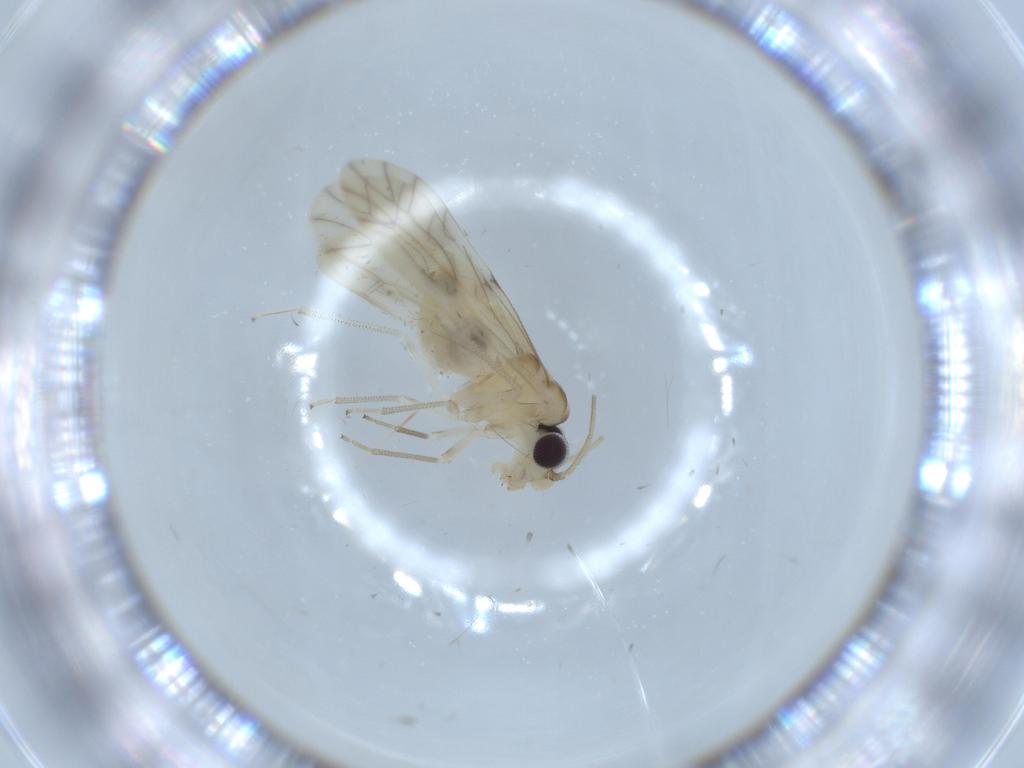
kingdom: Animalia
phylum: Arthropoda
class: Insecta
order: Psocodea
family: Caeciliusidae
